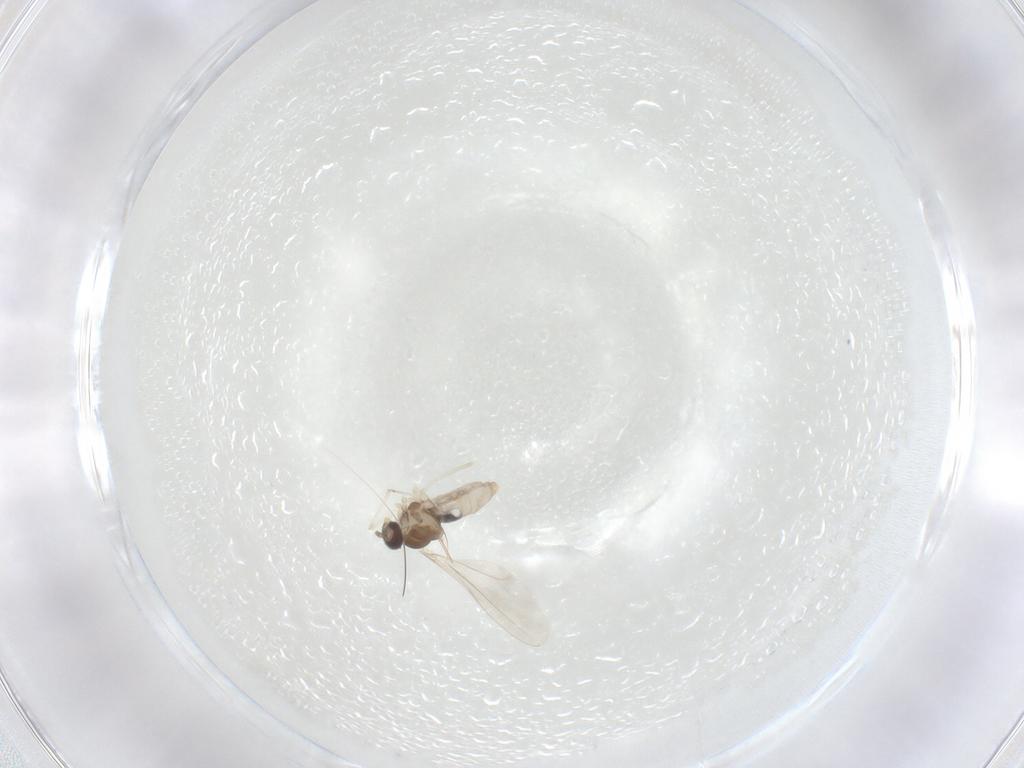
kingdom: Animalia
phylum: Arthropoda
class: Insecta
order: Diptera
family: Cecidomyiidae
